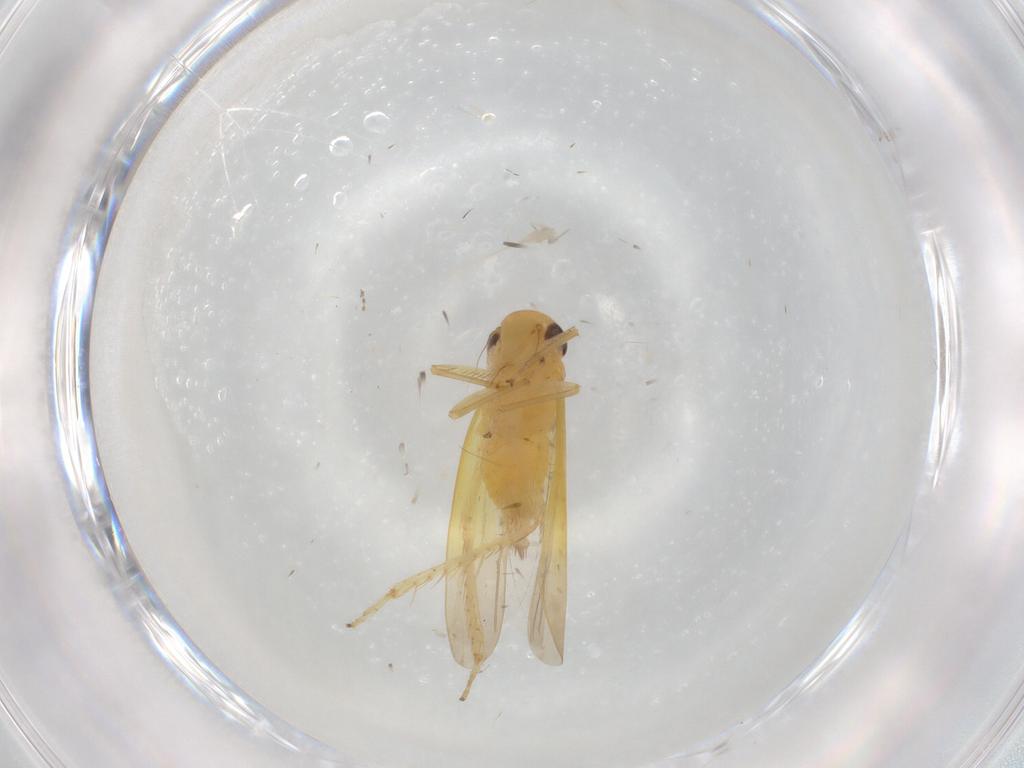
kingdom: Animalia
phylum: Arthropoda
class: Insecta
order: Hemiptera
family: Cicadellidae
